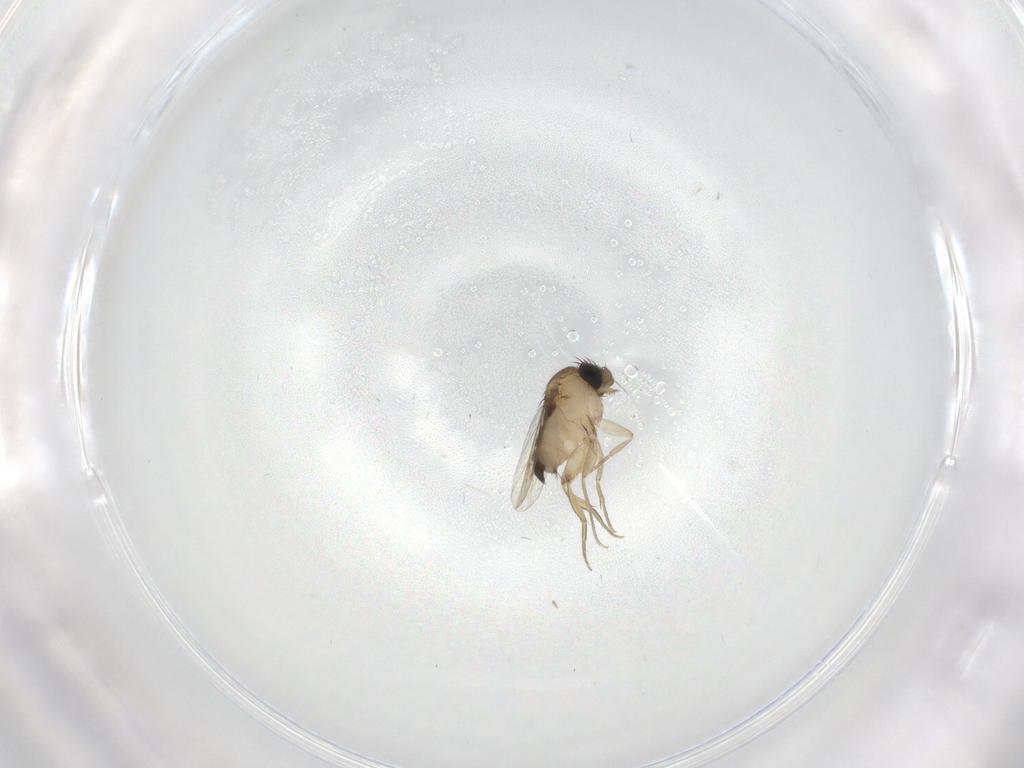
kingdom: Animalia
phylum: Arthropoda
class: Insecta
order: Diptera
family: Phoridae
